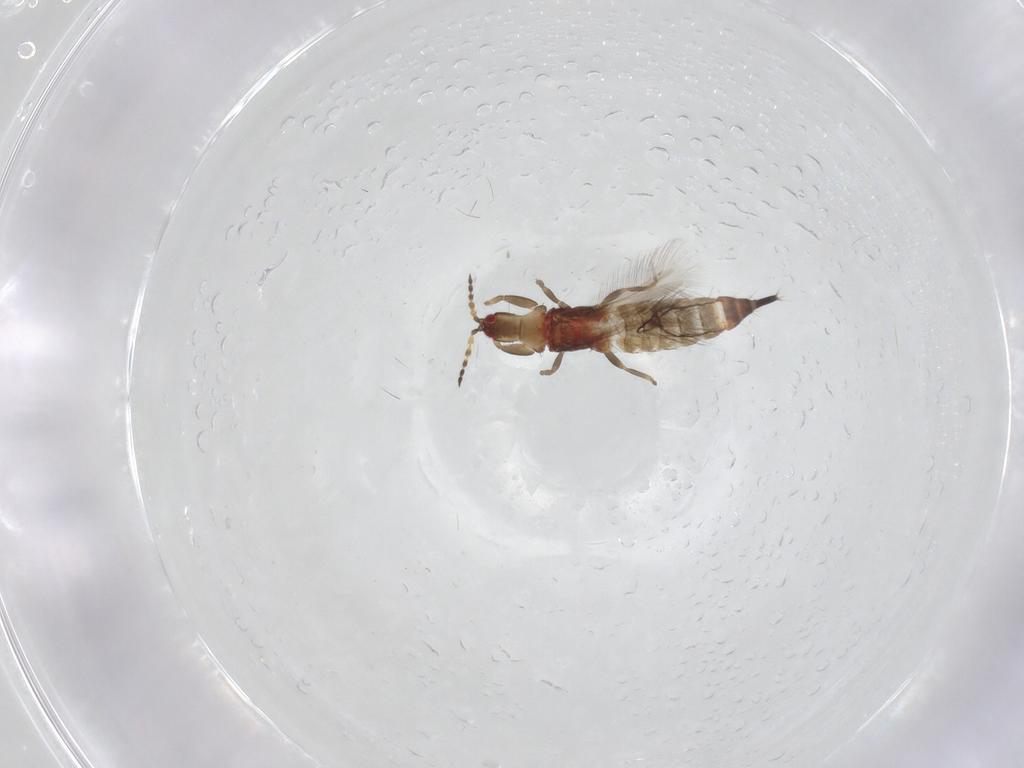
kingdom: Animalia
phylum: Arthropoda
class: Insecta
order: Thysanoptera
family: Phlaeothripidae
